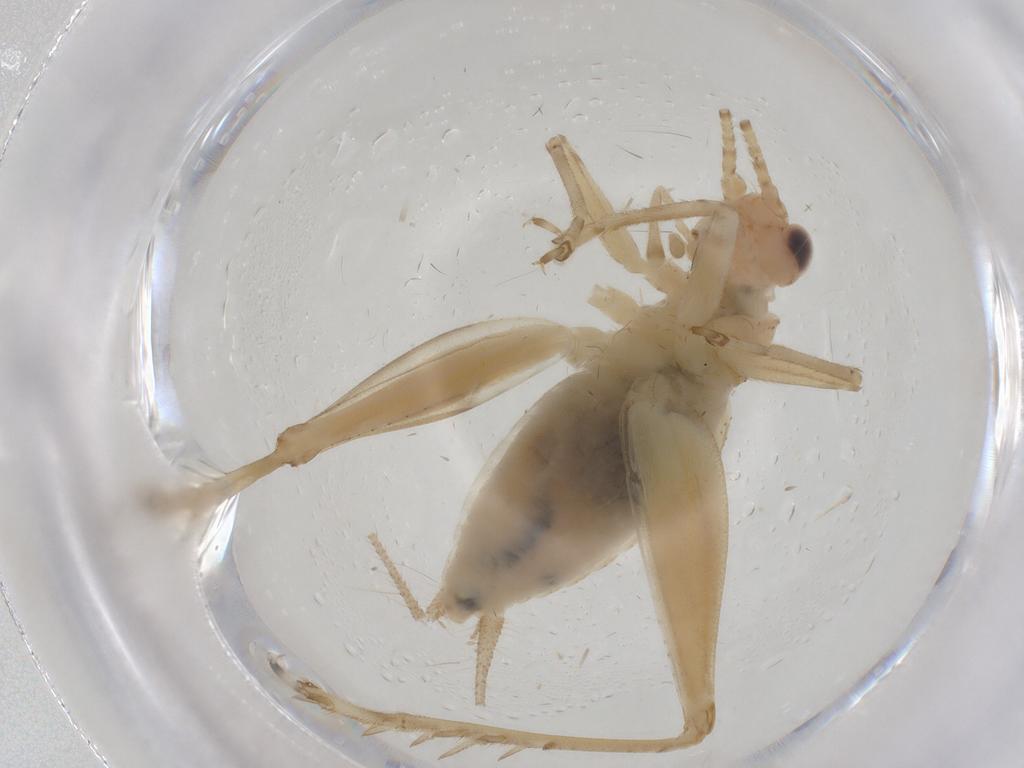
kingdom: Animalia
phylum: Arthropoda
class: Insecta
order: Orthoptera
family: Trigonidiidae
